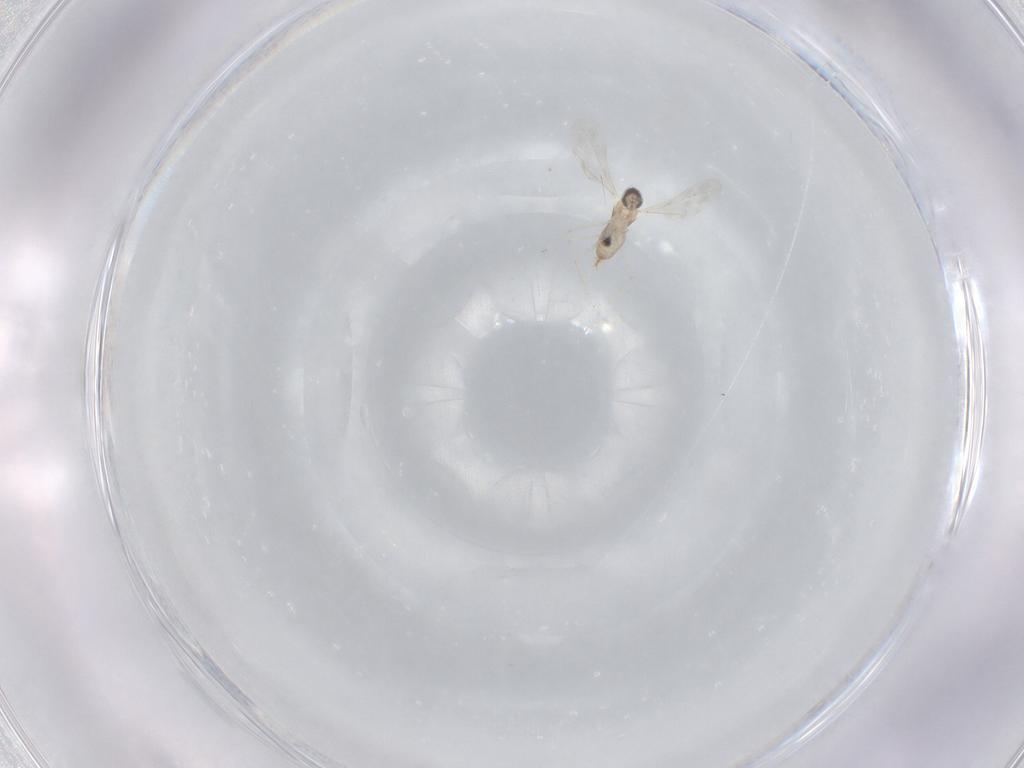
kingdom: Animalia
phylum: Arthropoda
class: Insecta
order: Diptera
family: Cecidomyiidae
